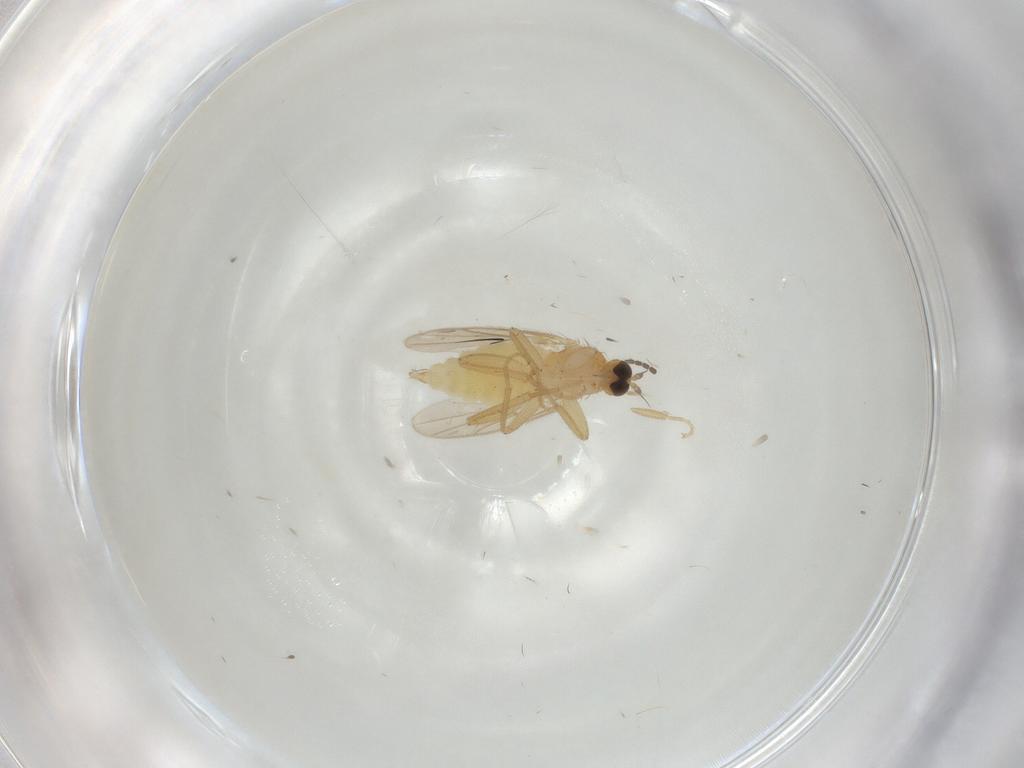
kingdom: Animalia
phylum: Arthropoda
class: Insecta
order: Diptera
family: Hybotidae
